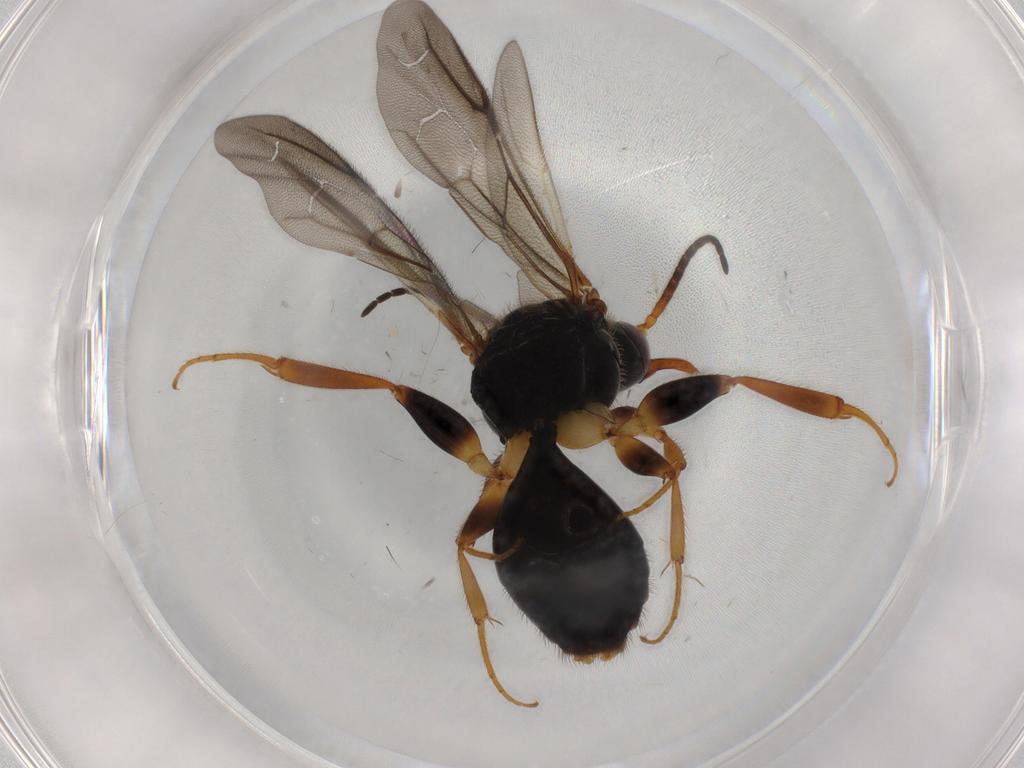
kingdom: Animalia
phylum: Arthropoda
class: Insecta
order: Hymenoptera
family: Bethylidae
